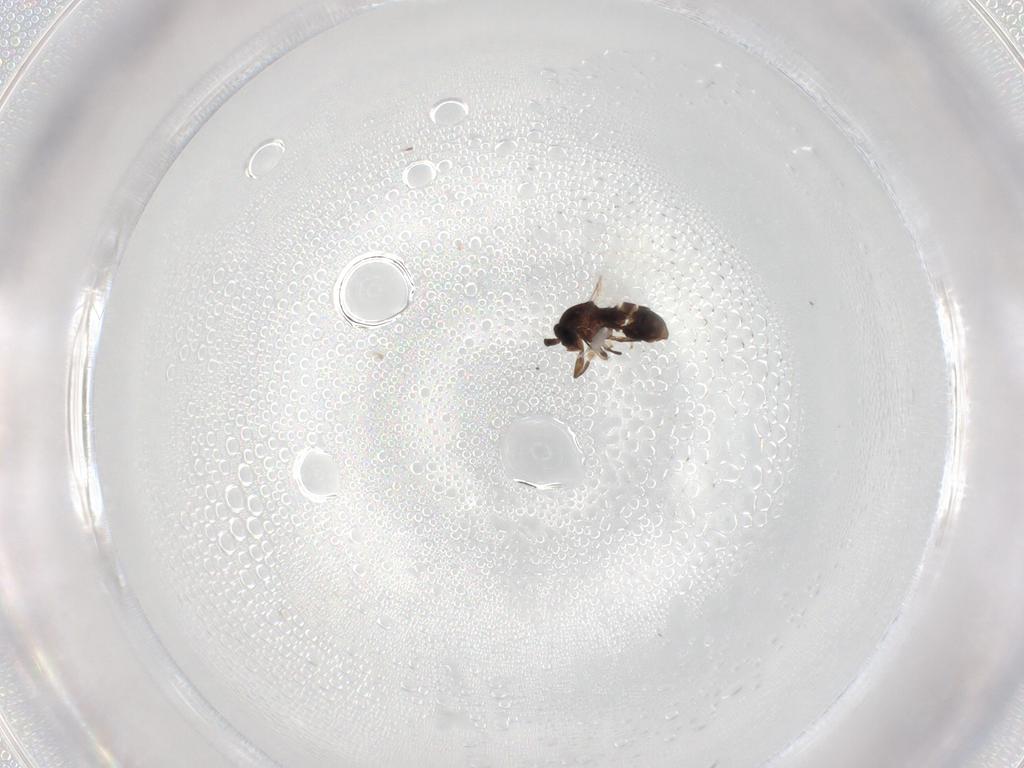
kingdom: Animalia
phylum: Arthropoda
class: Insecta
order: Diptera
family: Scatopsidae
